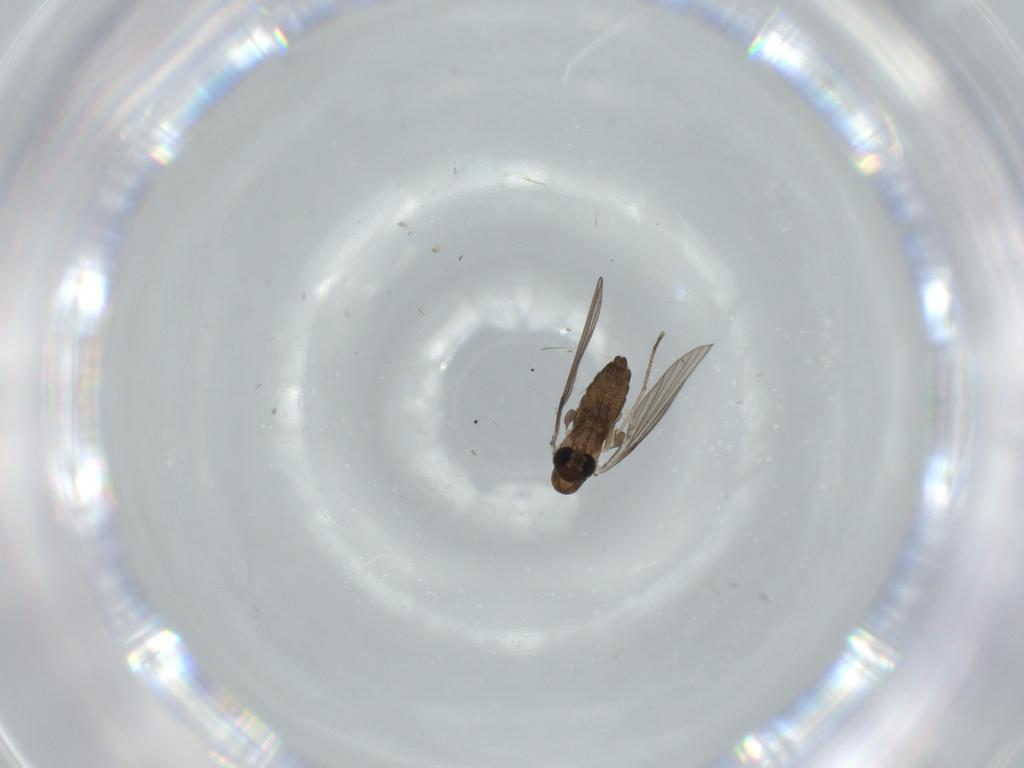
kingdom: Animalia
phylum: Arthropoda
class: Insecta
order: Diptera
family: Psychodidae
